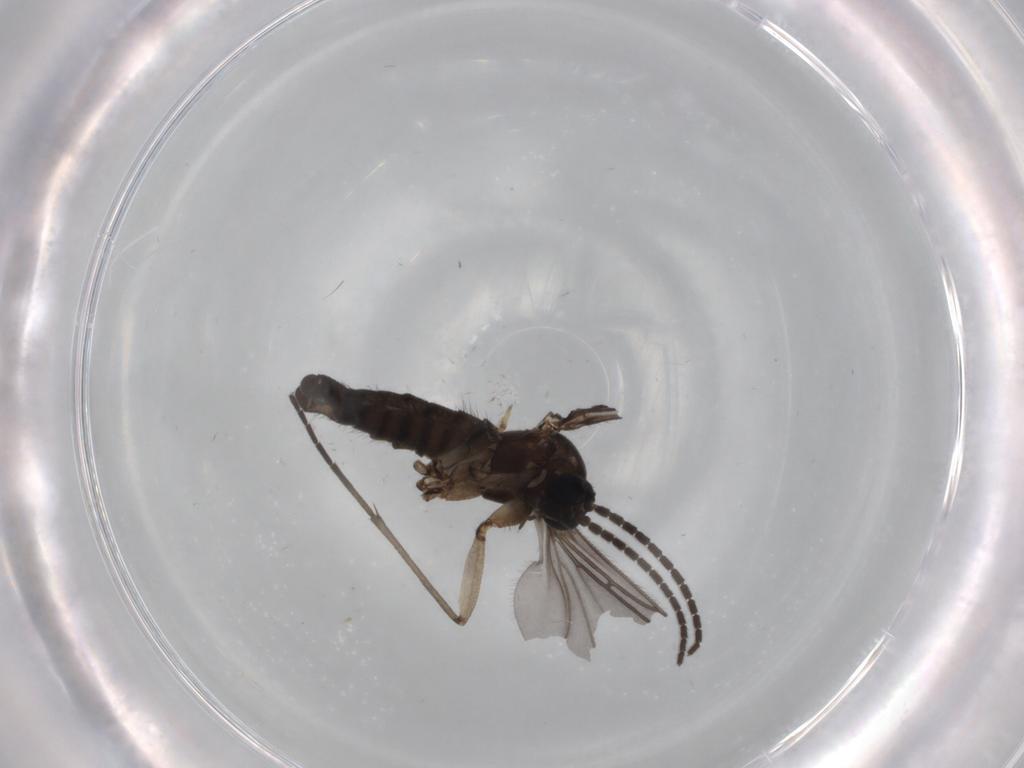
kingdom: Animalia
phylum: Arthropoda
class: Insecta
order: Diptera
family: Sciaridae
